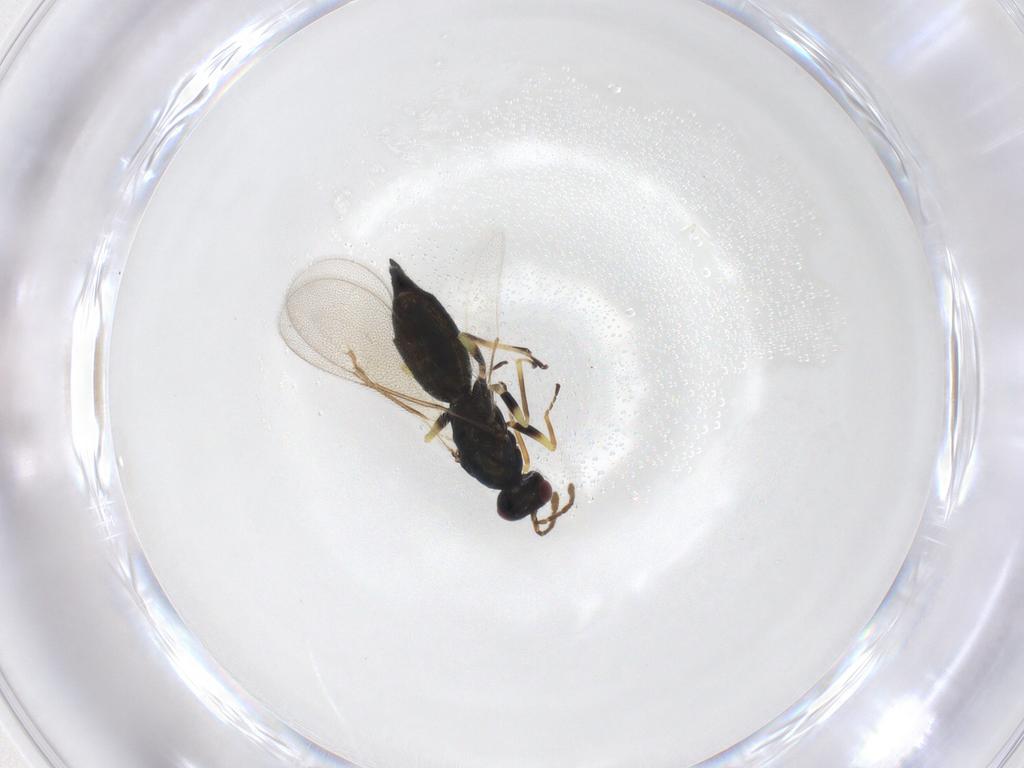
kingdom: Animalia
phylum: Arthropoda
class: Insecta
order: Hymenoptera
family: Eulophidae
